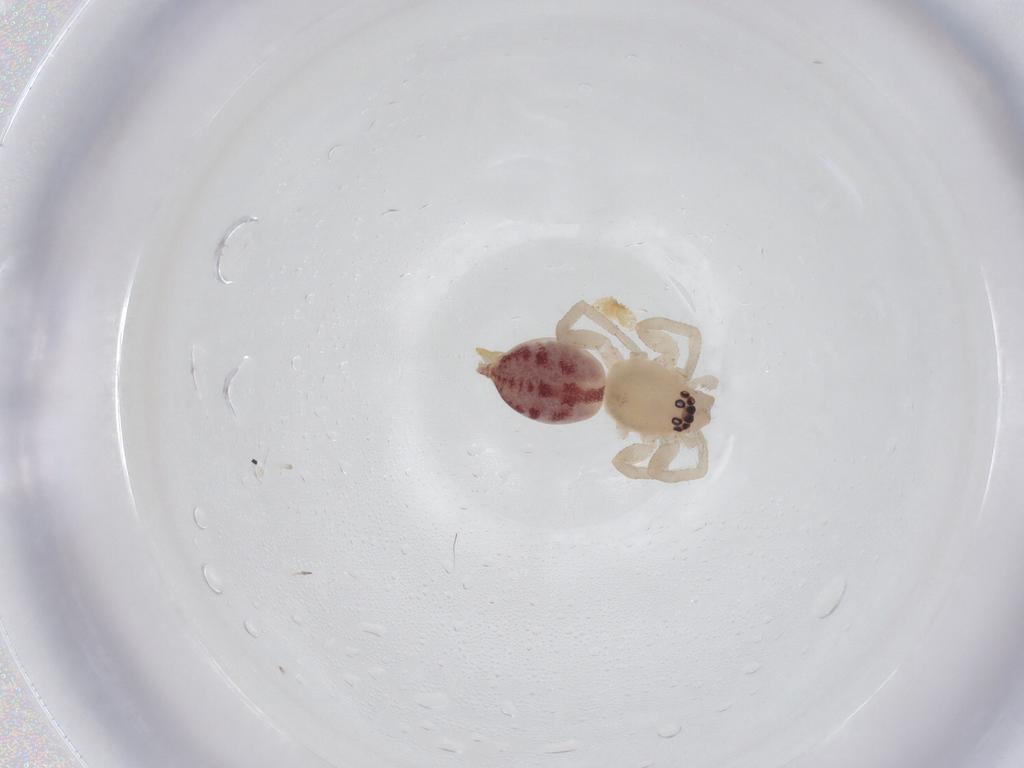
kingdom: Animalia
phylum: Arthropoda
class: Arachnida
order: Araneae
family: Clubionidae
